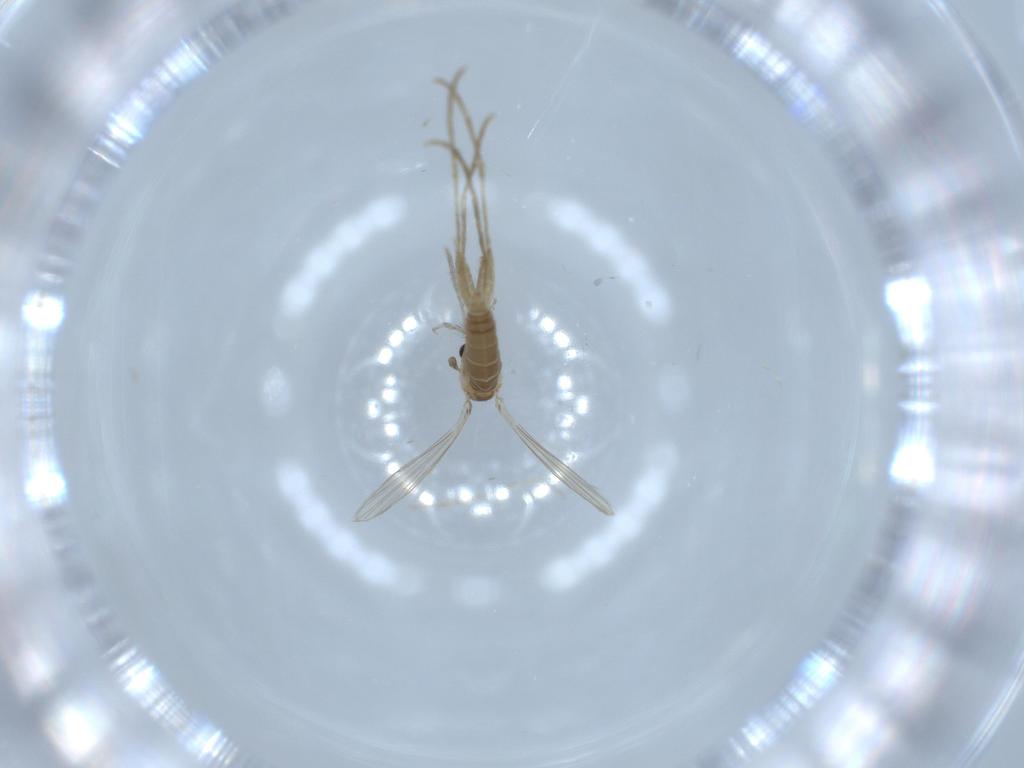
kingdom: Animalia
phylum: Arthropoda
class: Insecta
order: Diptera
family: Psychodidae
